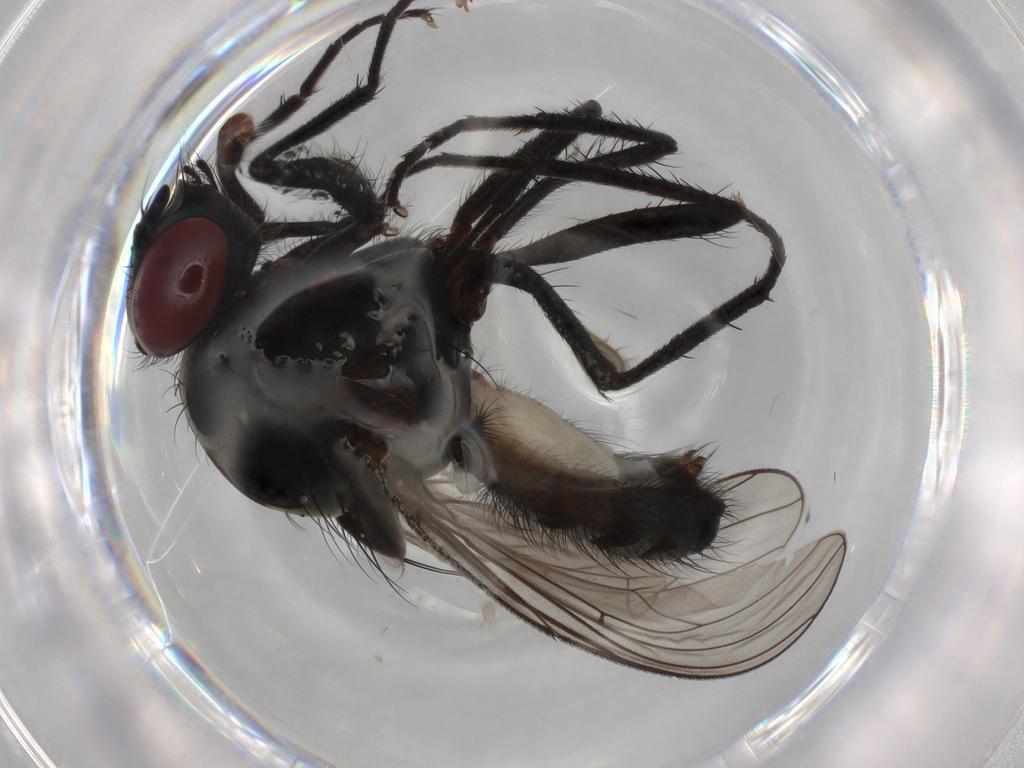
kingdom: Animalia
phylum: Arthropoda
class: Insecta
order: Diptera
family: Anthomyiidae
